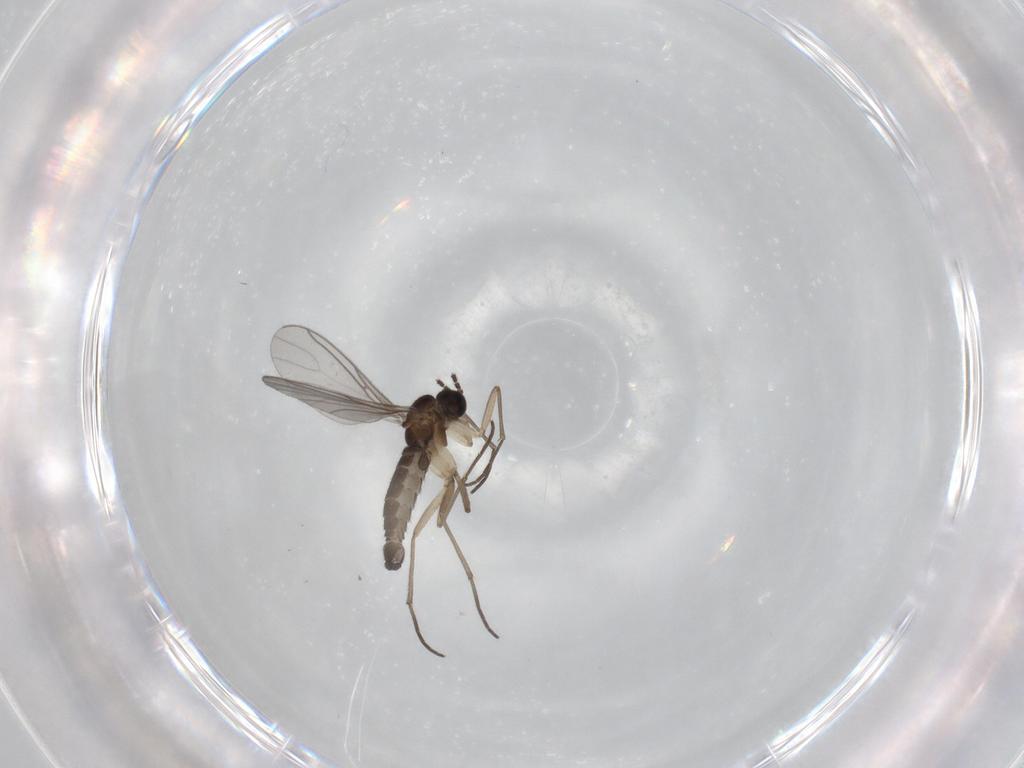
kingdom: Animalia
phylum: Arthropoda
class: Insecta
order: Diptera
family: Chironomidae
